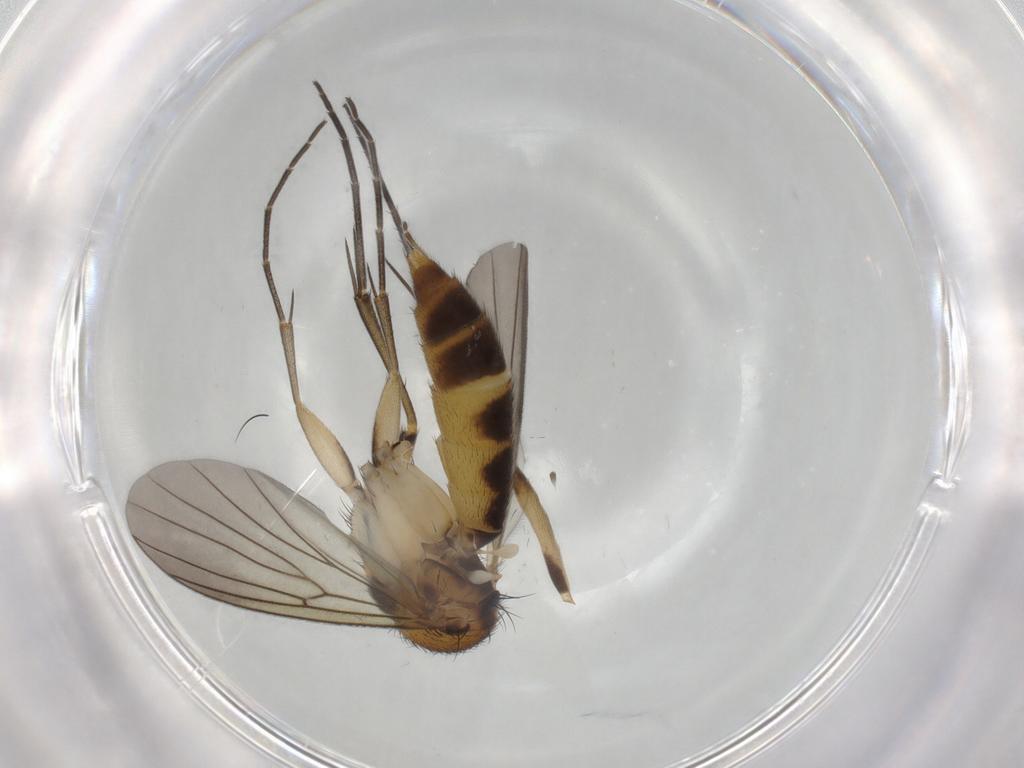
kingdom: Animalia
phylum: Arthropoda
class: Insecta
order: Diptera
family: Mycetophilidae
